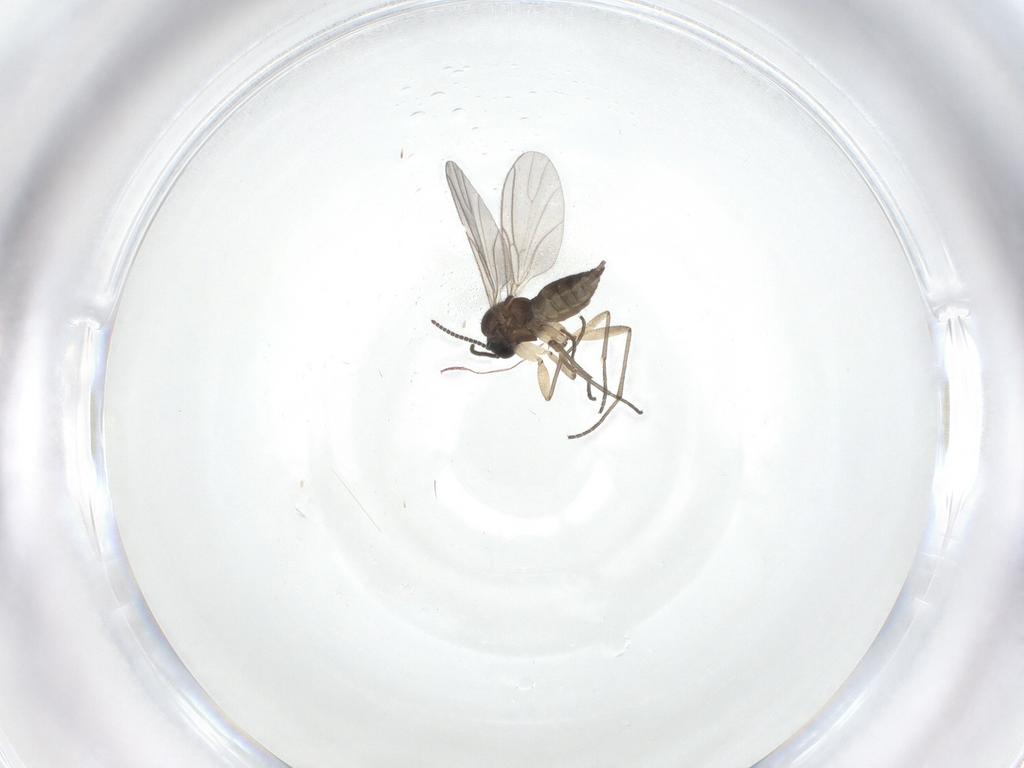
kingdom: Animalia
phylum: Arthropoda
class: Insecta
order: Diptera
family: Sciaridae
